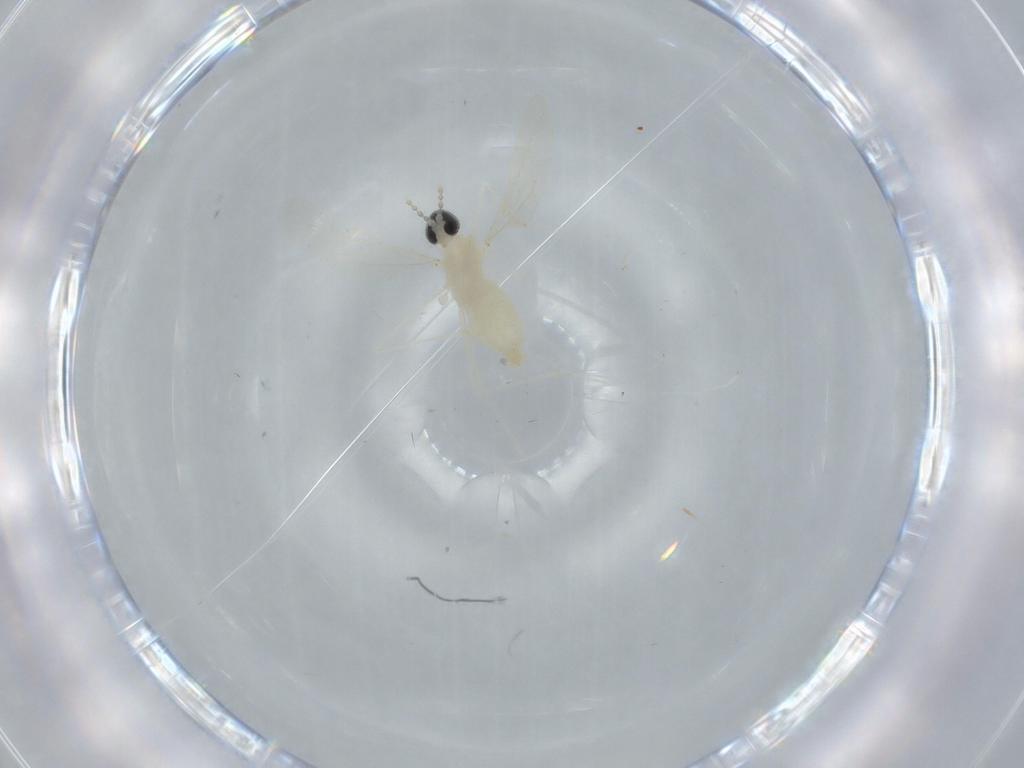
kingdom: Animalia
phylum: Arthropoda
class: Insecta
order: Diptera
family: Cecidomyiidae
